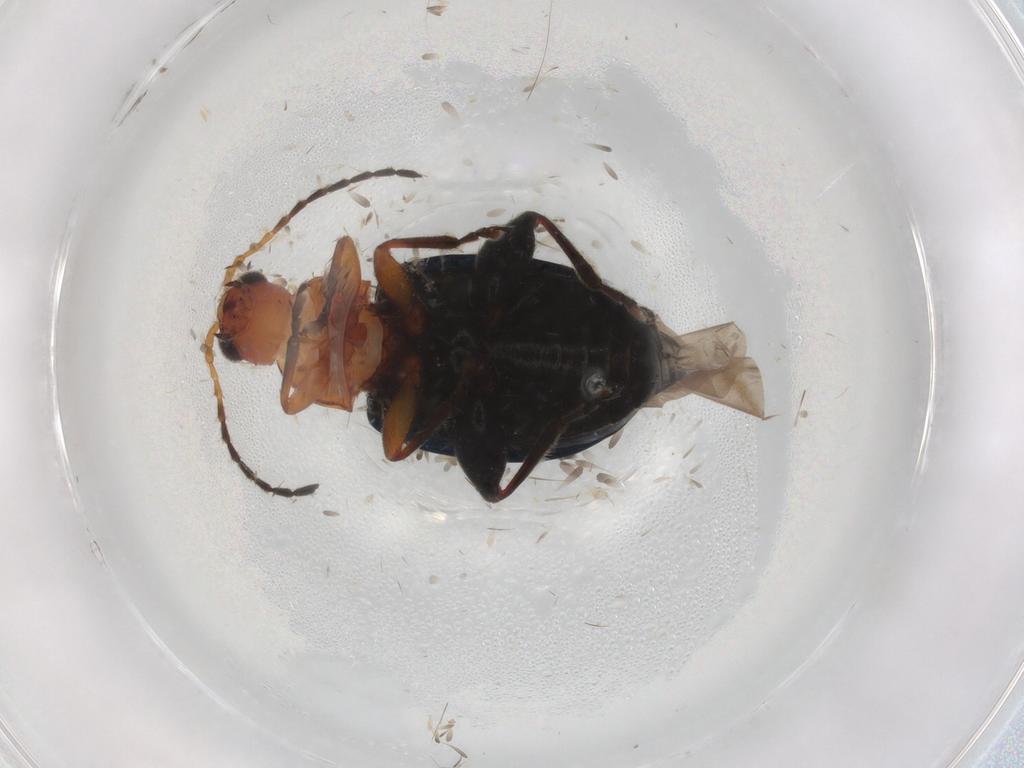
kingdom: Animalia
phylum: Arthropoda
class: Insecta
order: Coleoptera
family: Chrysomelidae
